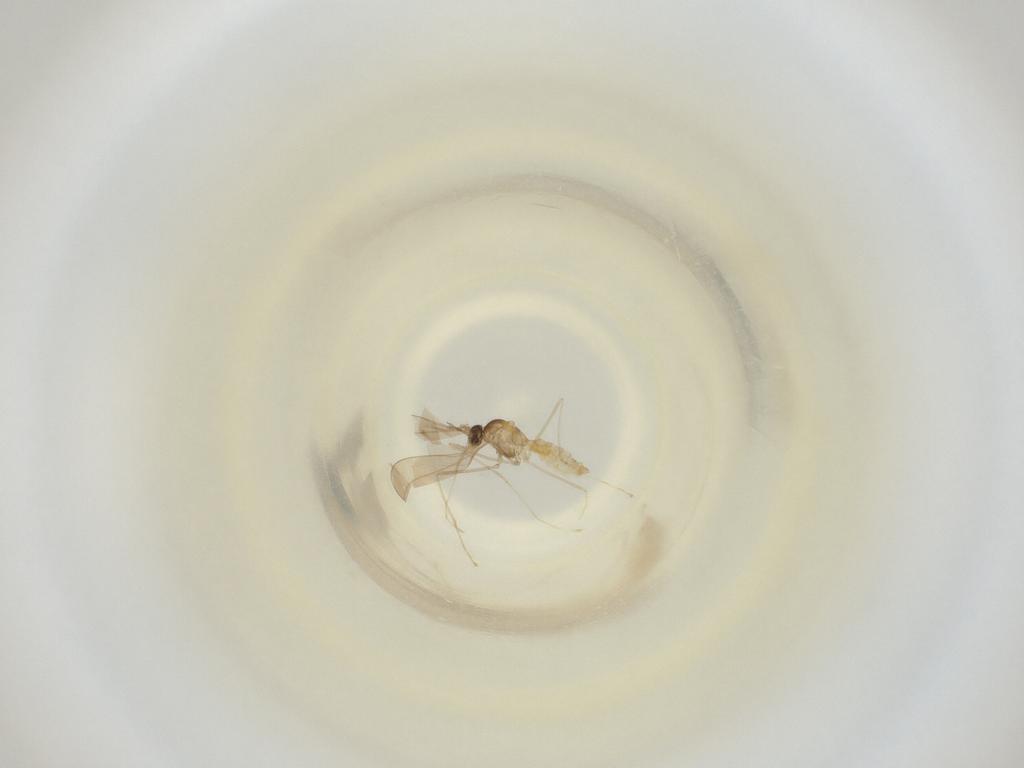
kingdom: Animalia
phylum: Arthropoda
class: Insecta
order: Diptera
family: Cecidomyiidae
